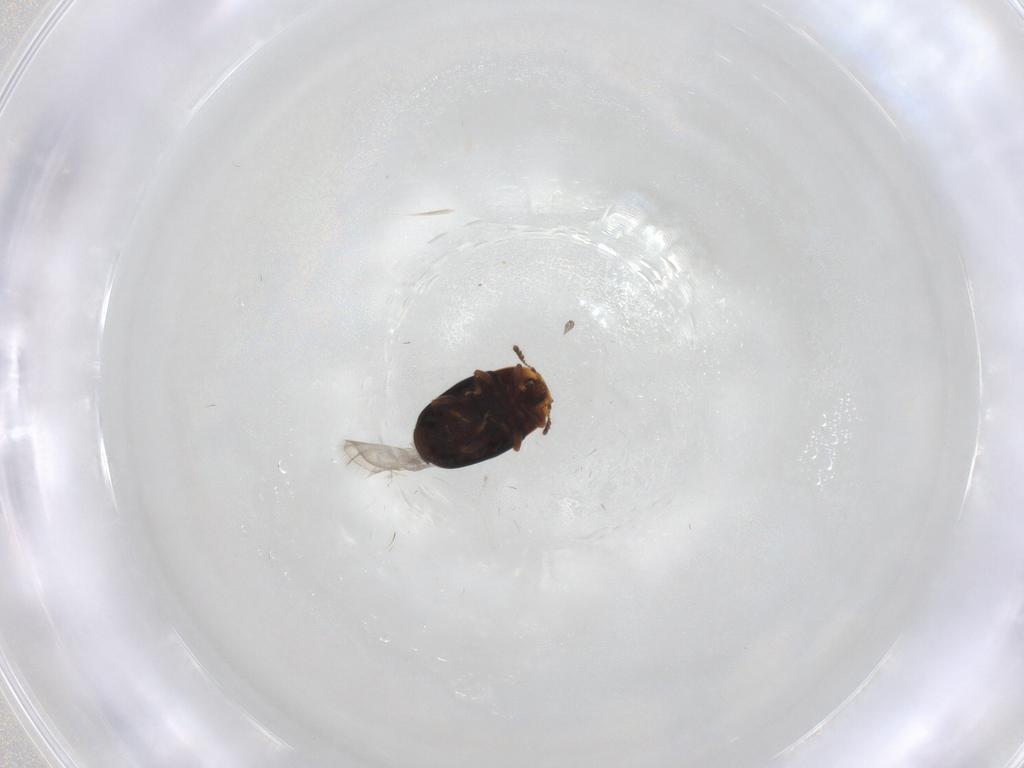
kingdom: Animalia
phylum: Arthropoda
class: Insecta
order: Coleoptera
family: Corylophidae
